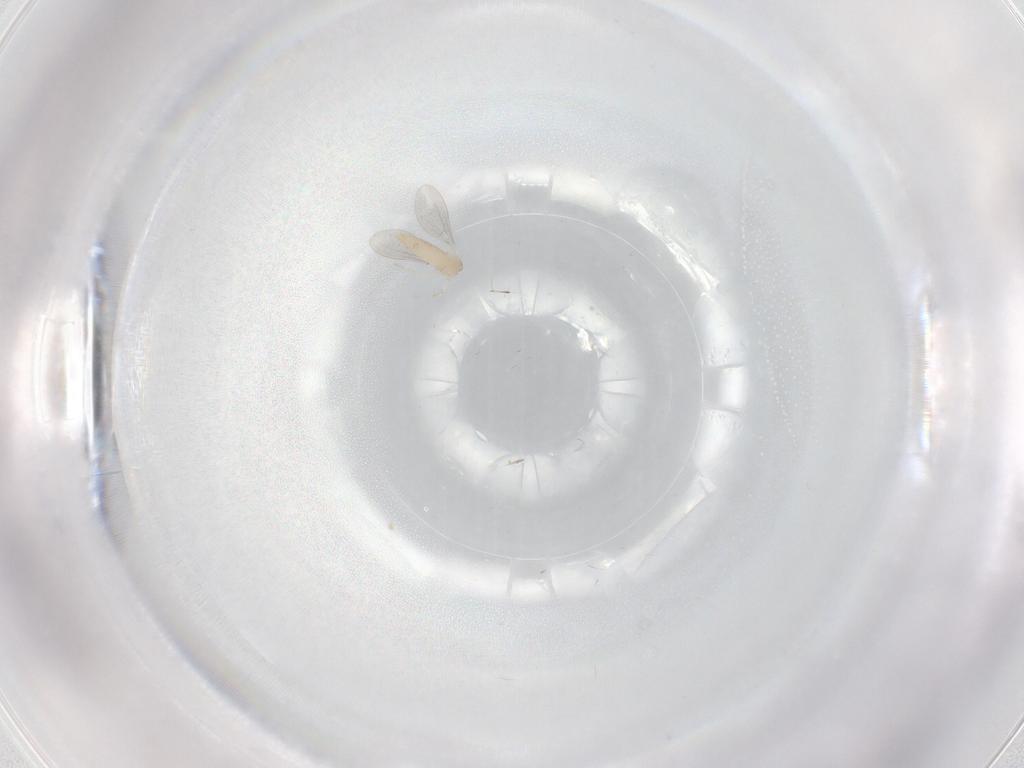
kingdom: Animalia
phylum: Arthropoda
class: Insecta
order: Diptera
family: Cecidomyiidae
